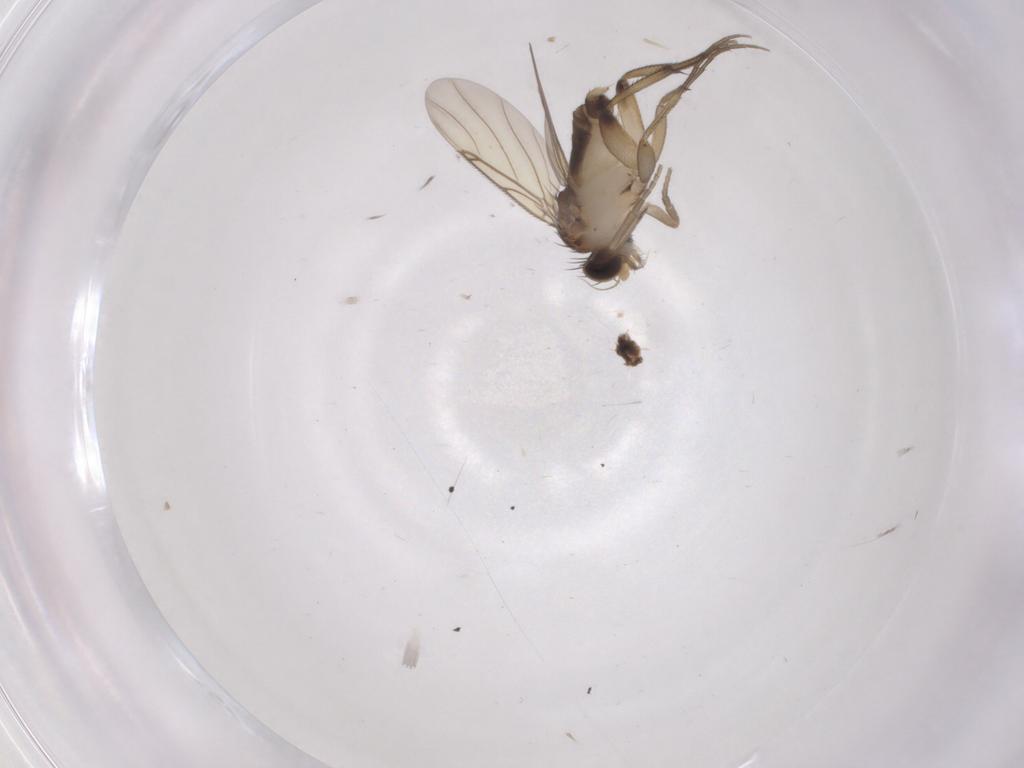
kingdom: Animalia
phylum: Arthropoda
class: Insecta
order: Diptera
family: Phoridae
